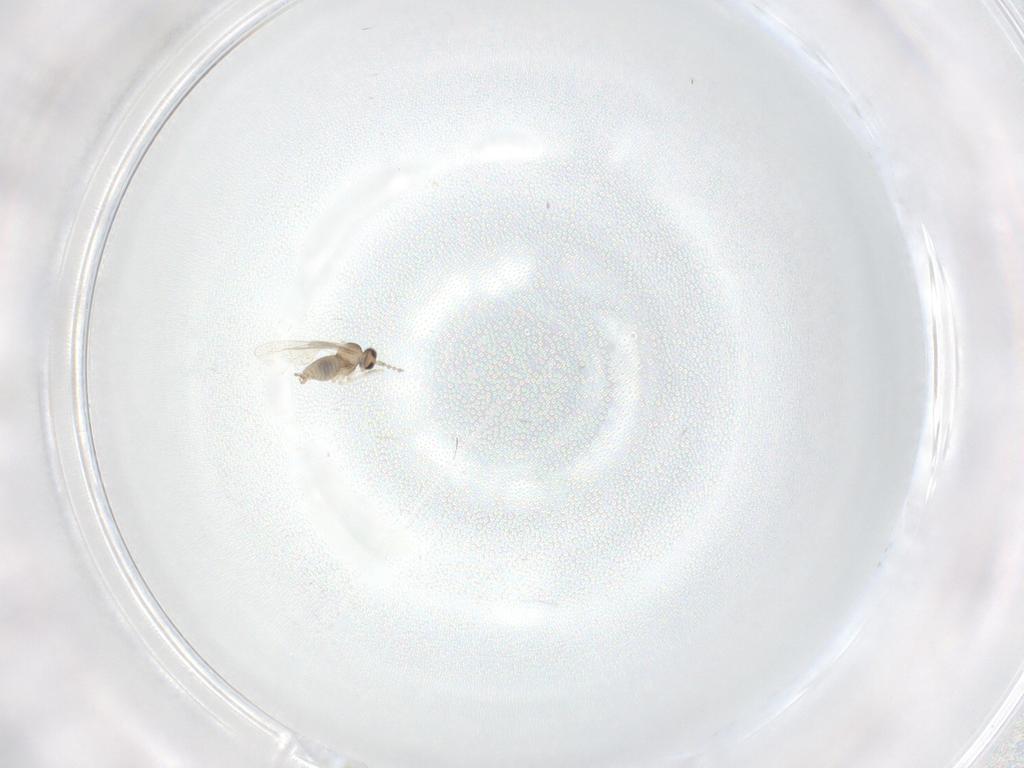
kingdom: Animalia
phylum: Arthropoda
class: Insecta
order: Diptera
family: Cecidomyiidae
